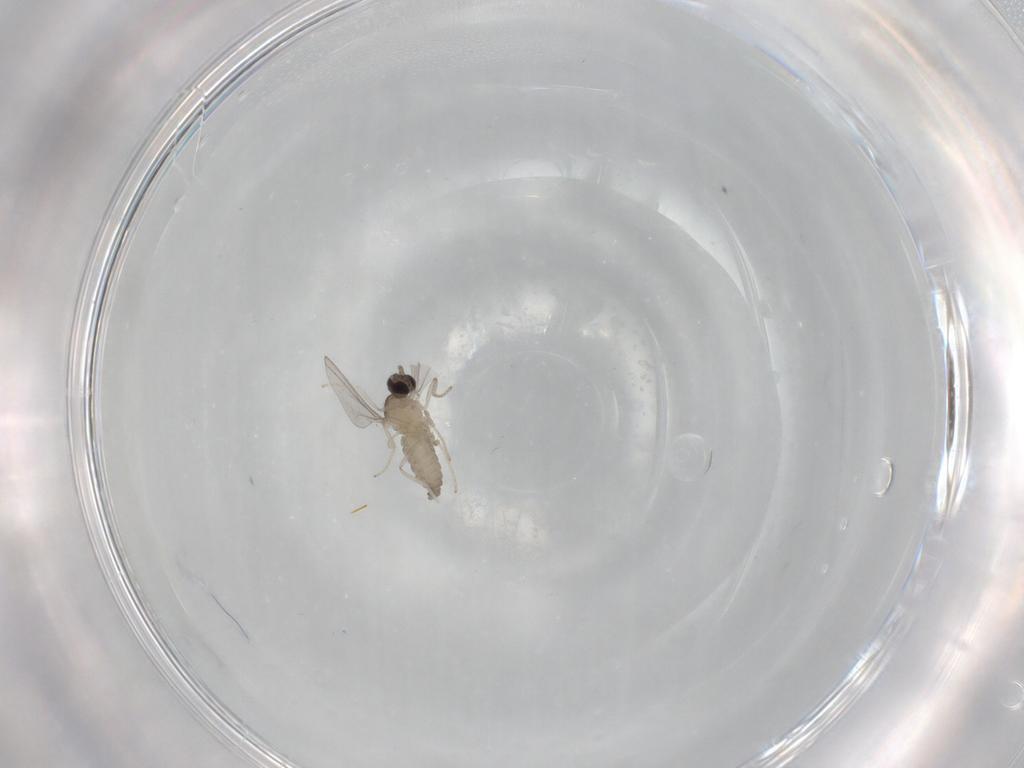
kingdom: Animalia
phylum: Arthropoda
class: Insecta
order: Diptera
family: Cecidomyiidae
